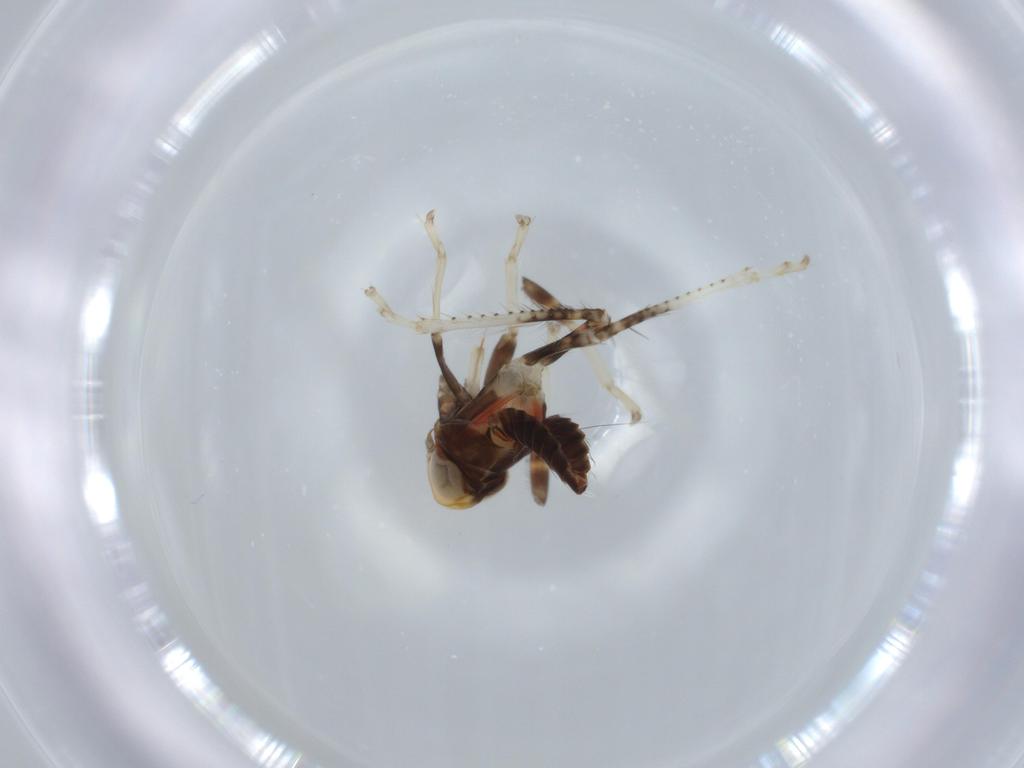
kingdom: Animalia
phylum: Arthropoda
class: Insecta
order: Hemiptera
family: Cicadellidae
